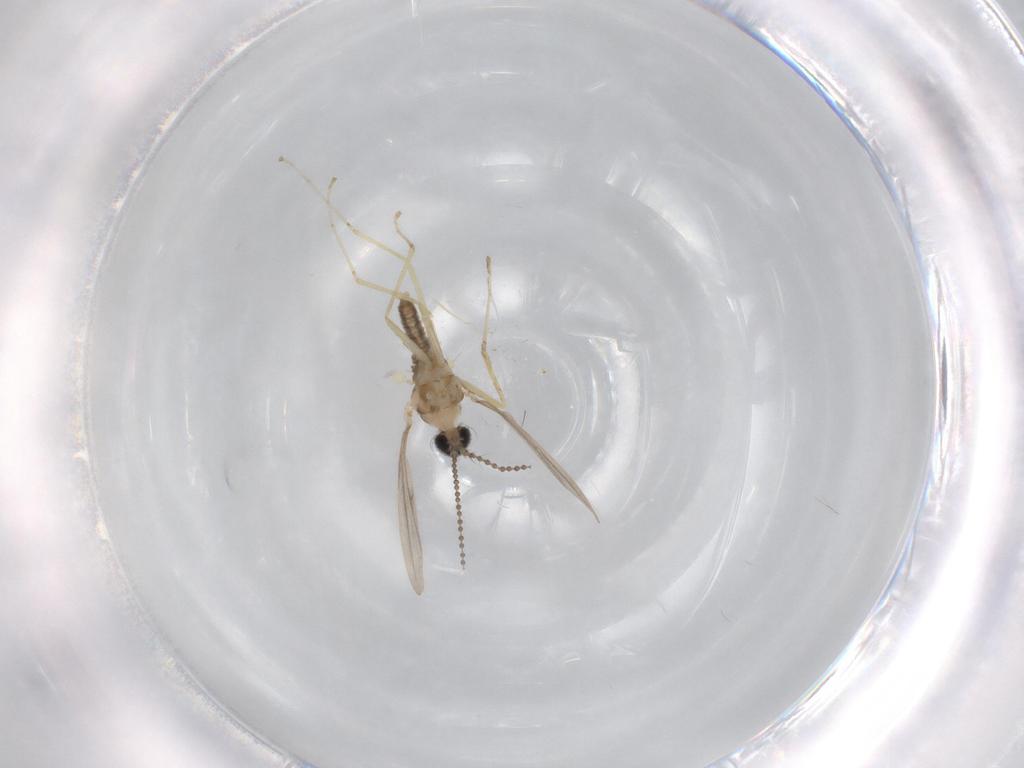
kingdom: Animalia
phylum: Arthropoda
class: Insecta
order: Diptera
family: Cecidomyiidae
